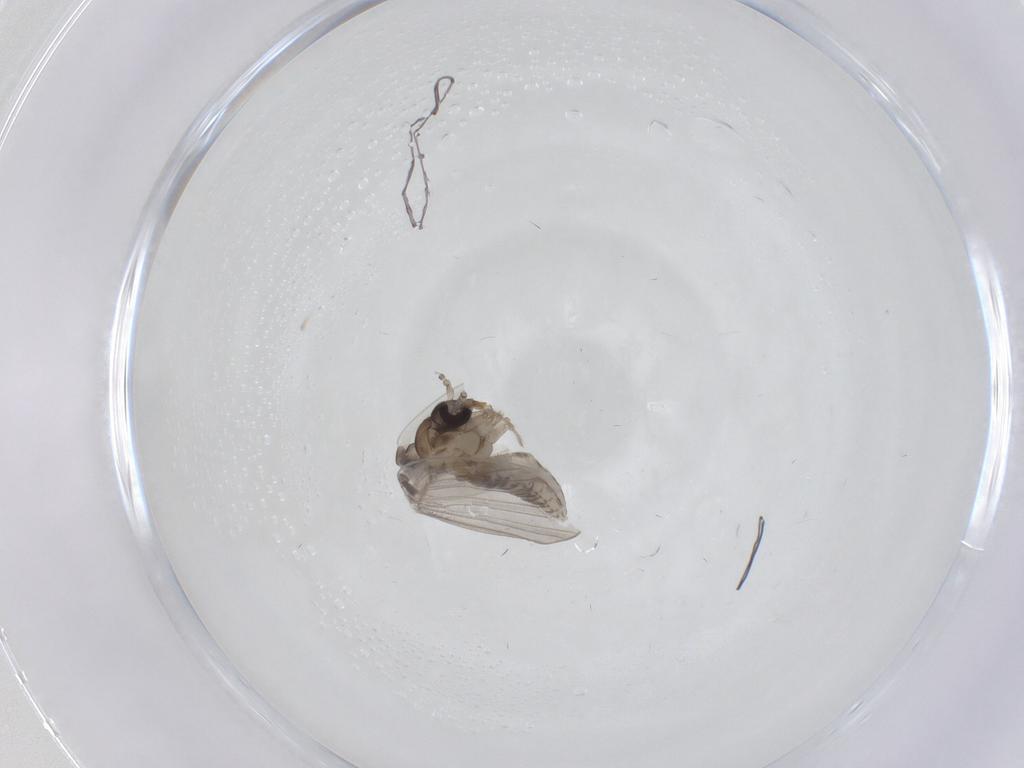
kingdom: Animalia
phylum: Arthropoda
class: Insecta
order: Diptera
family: Psychodidae
